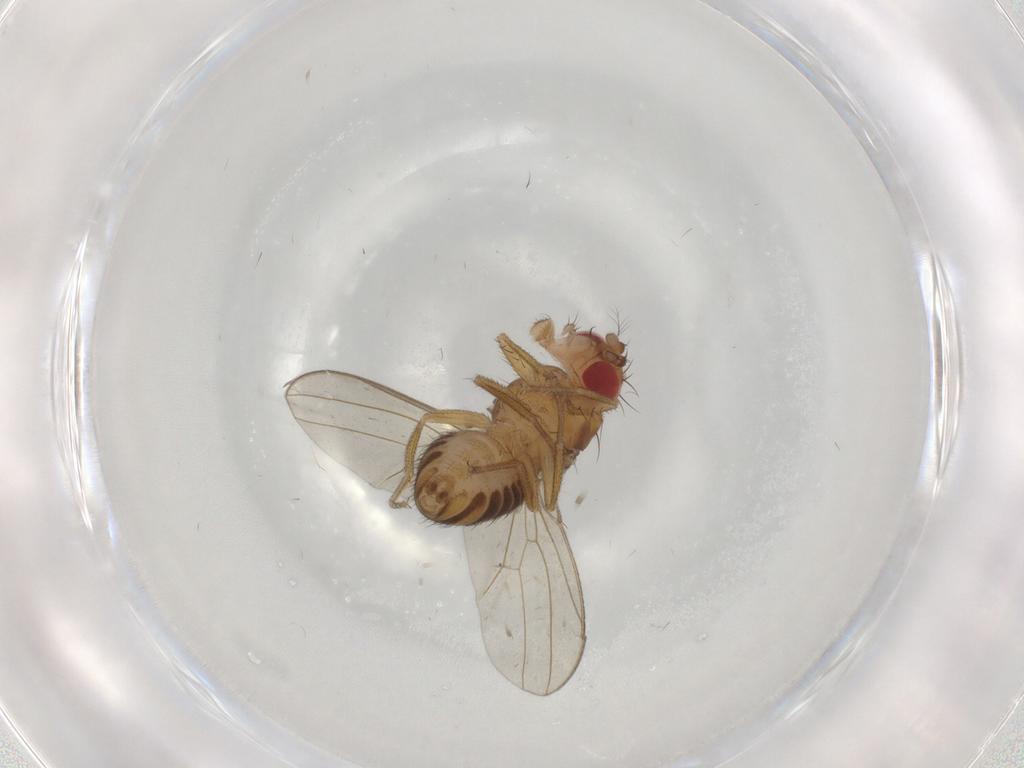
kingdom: Animalia
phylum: Arthropoda
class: Insecta
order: Diptera
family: Drosophilidae
